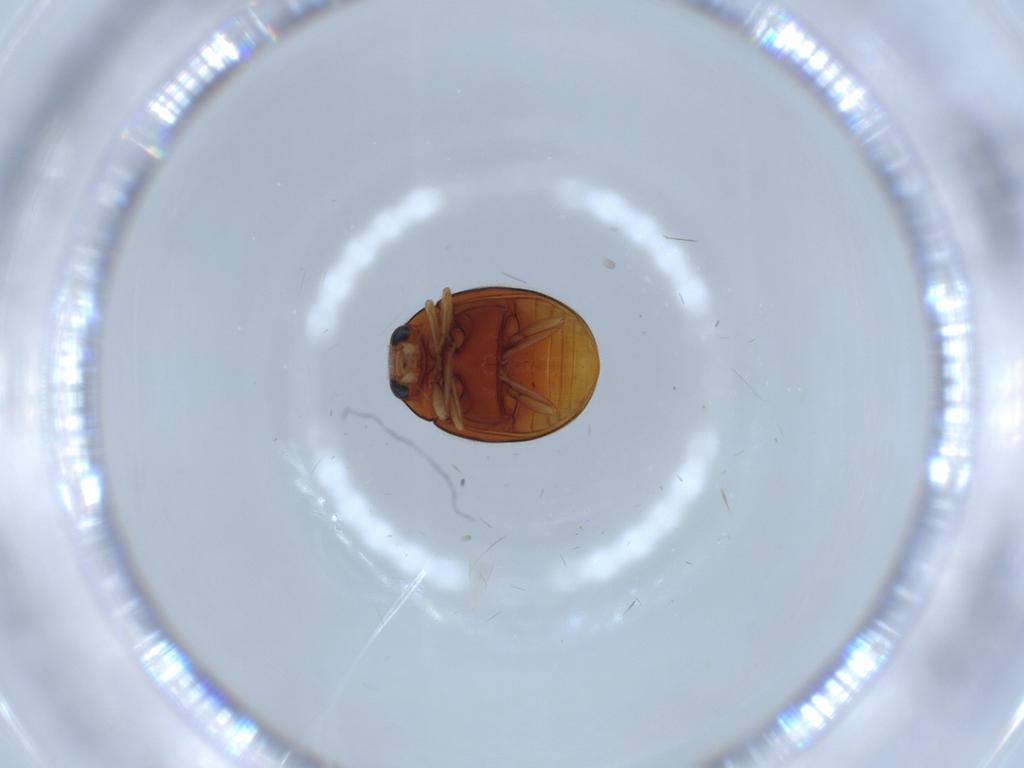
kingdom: Animalia
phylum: Arthropoda
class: Insecta
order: Coleoptera
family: Coccinellidae
